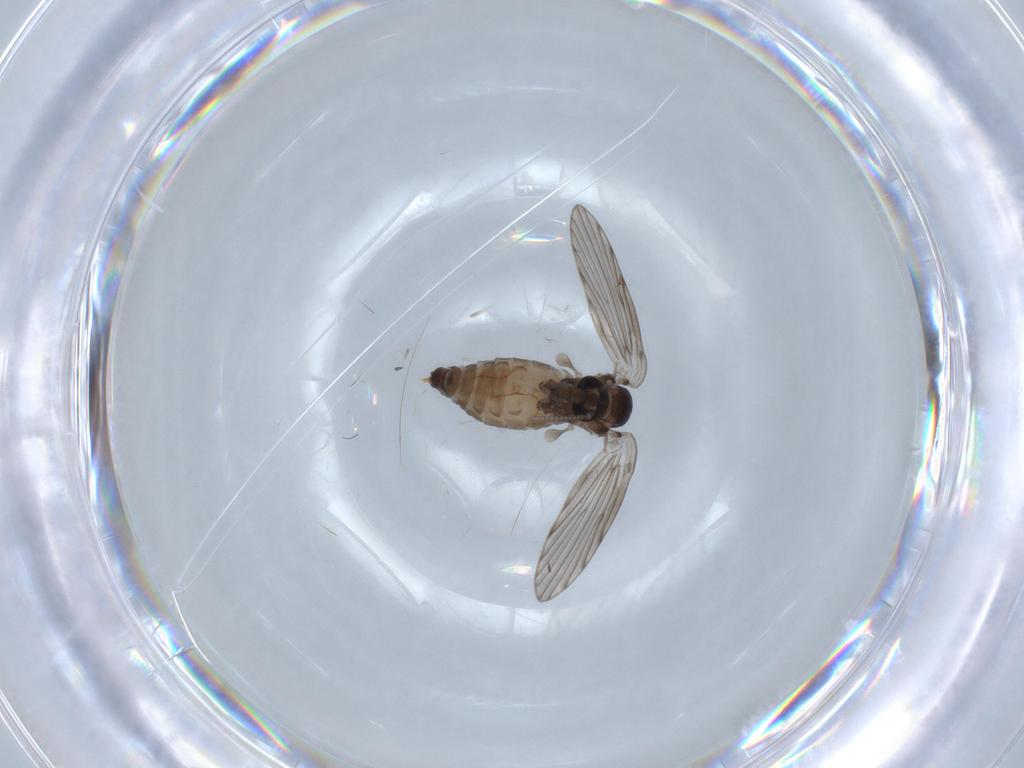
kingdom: Animalia
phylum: Arthropoda
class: Insecta
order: Diptera
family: Psychodidae
